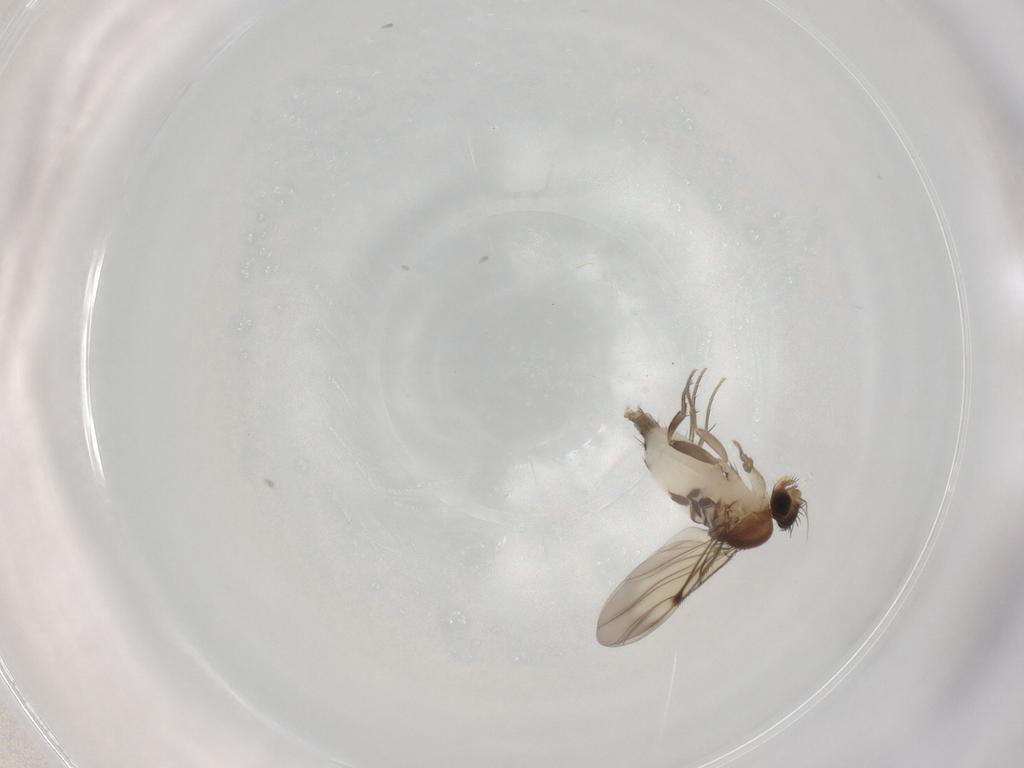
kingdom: Animalia
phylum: Arthropoda
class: Insecta
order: Diptera
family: Phoridae
